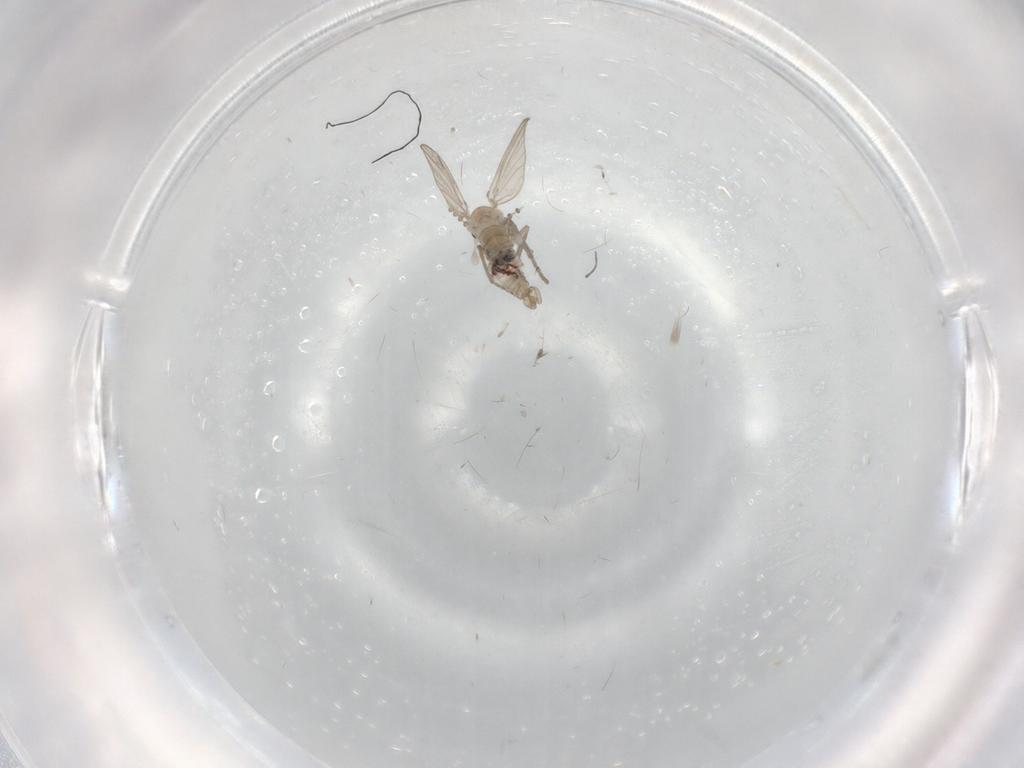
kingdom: Animalia
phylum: Arthropoda
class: Insecta
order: Diptera
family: Psychodidae
